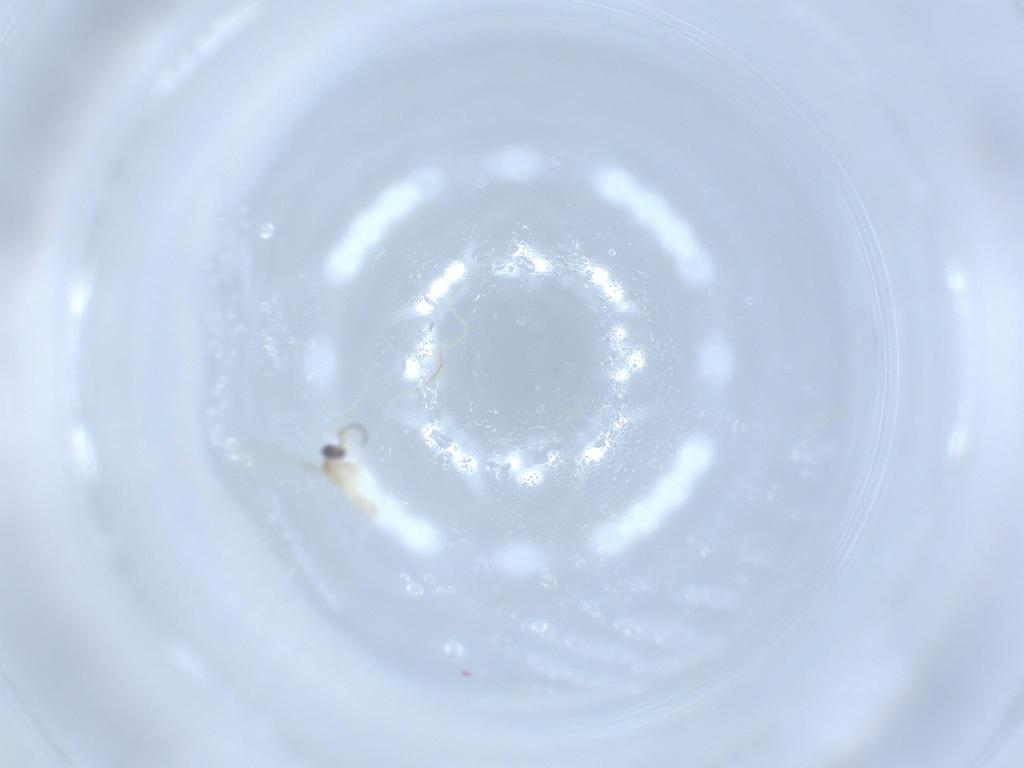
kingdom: Animalia
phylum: Arthropoda
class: Insecta
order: Diptera
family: Cecidomyiidae
